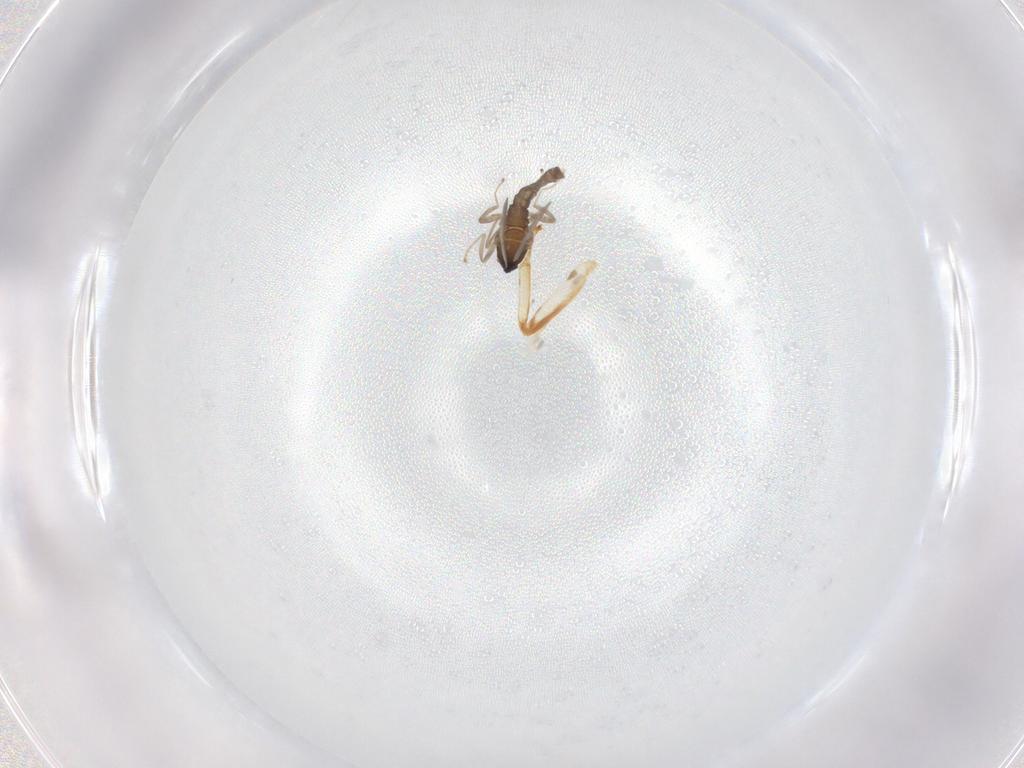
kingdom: Animalia
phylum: Arthropoda
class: Insecta
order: Diptera
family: Cecidomyiidae
